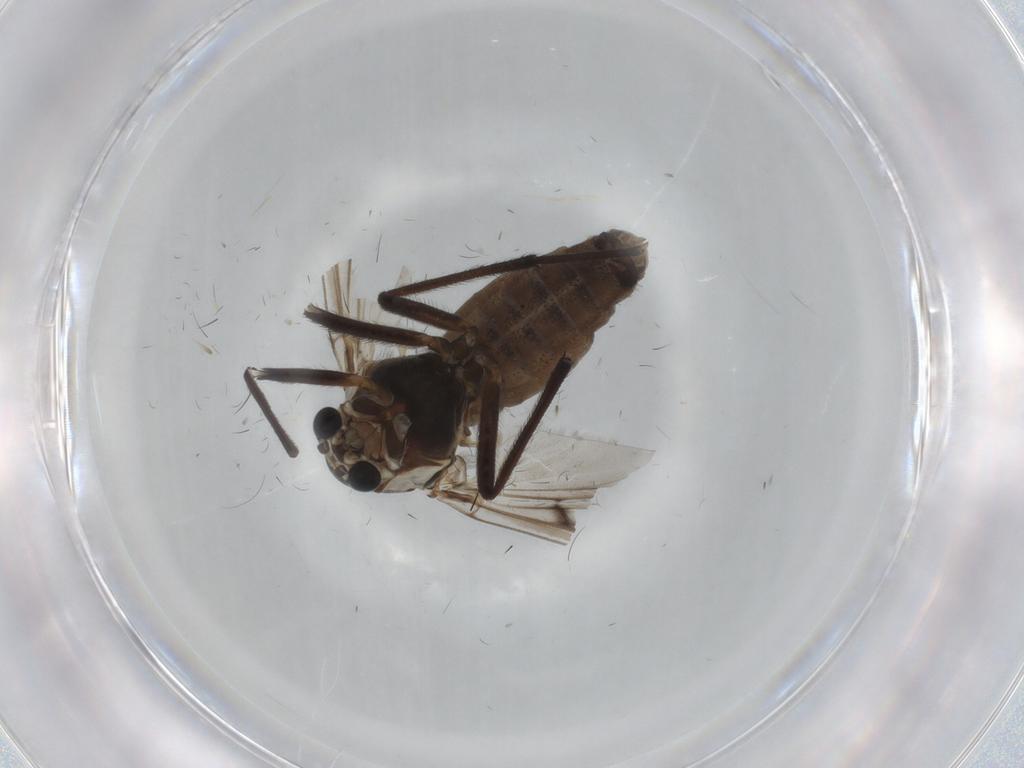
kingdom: Animalia
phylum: Arthropoda
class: Insecta
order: Diptera
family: Chironomidae
